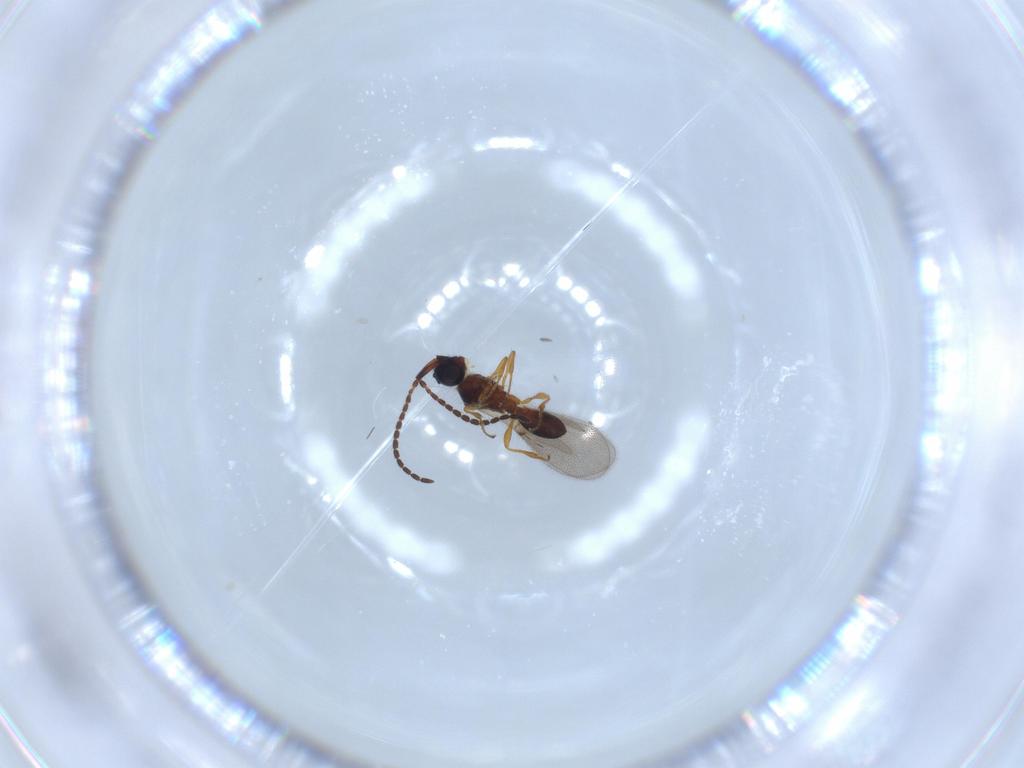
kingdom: Animalia
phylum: Arthropoda
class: Insecta
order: Hymenoptera
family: Diapriidae
